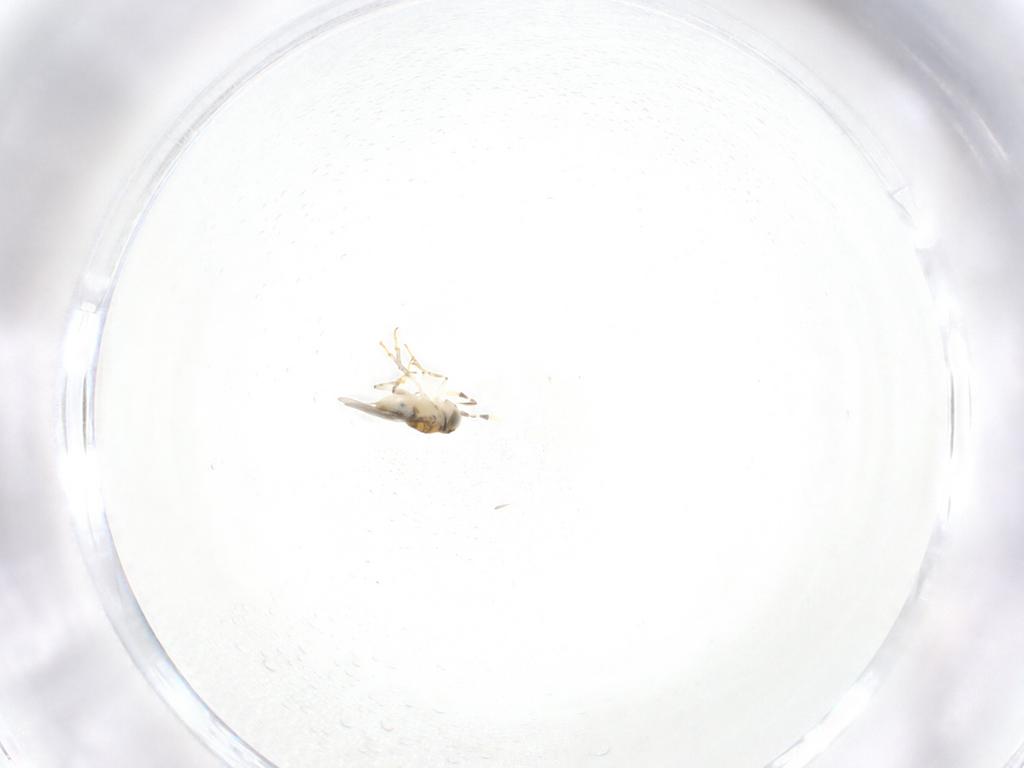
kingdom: Animalia
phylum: Arthropoda
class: Insecta
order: Hymenoptera
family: Encyrtidae
